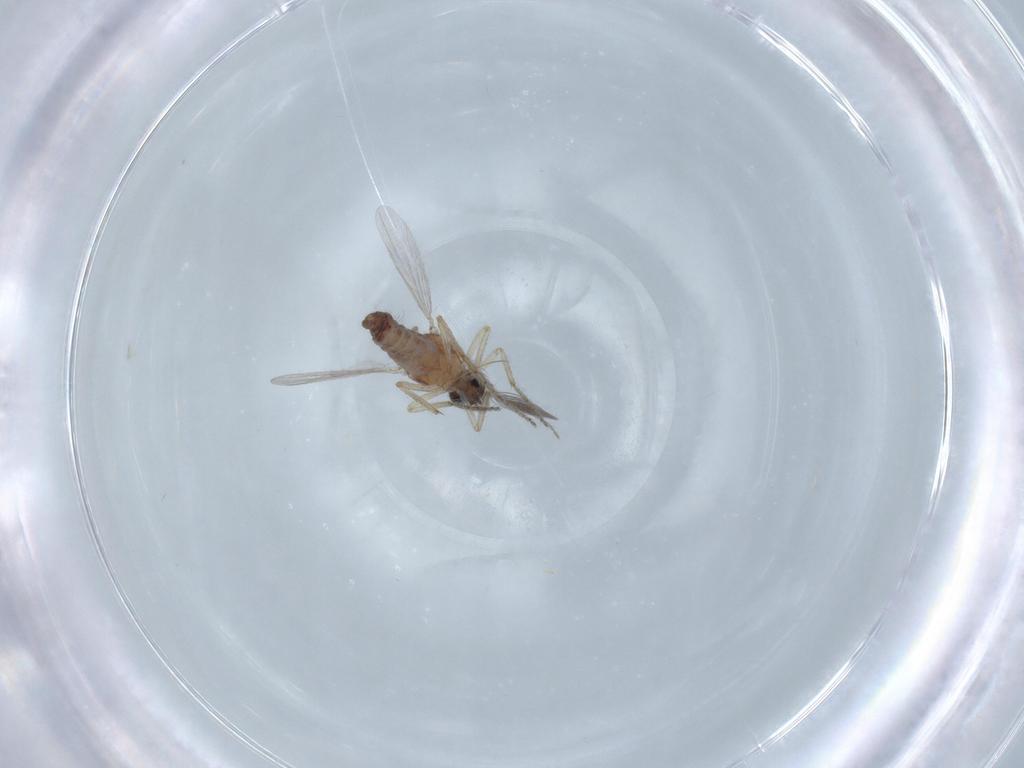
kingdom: Animalia
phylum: Arthropoda
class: Insecta
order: Diptera
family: Ceratopogonidae
